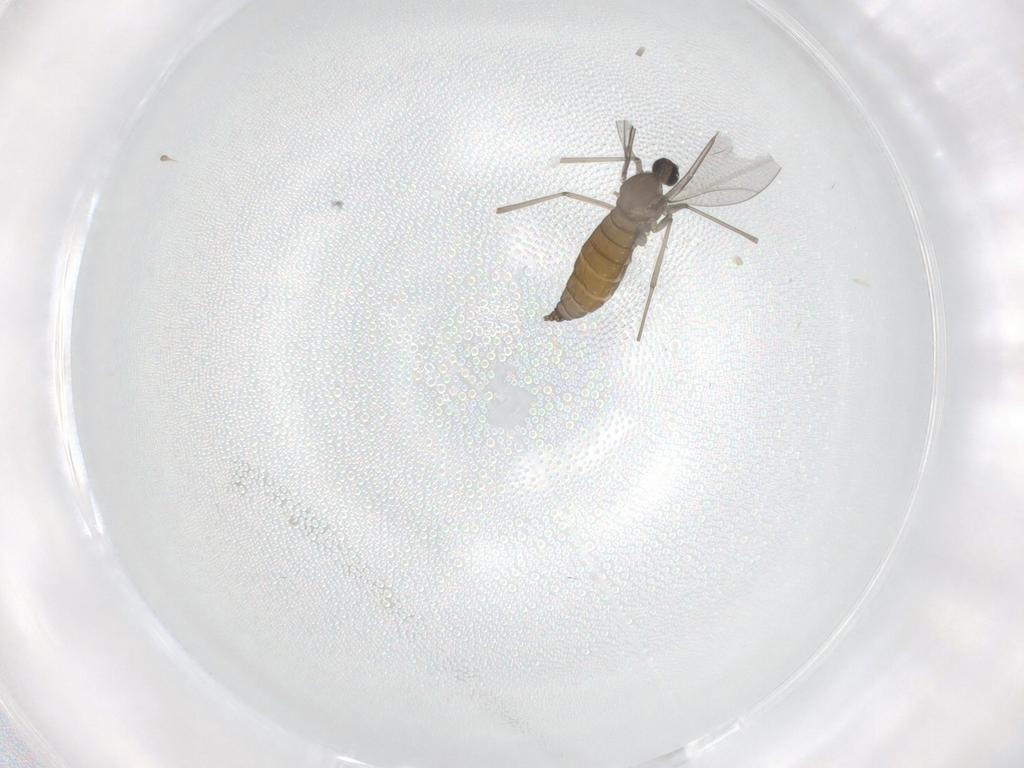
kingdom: Animalia
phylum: Arthropoda
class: Insecta
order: Diptera
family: Cecidomyiidae
